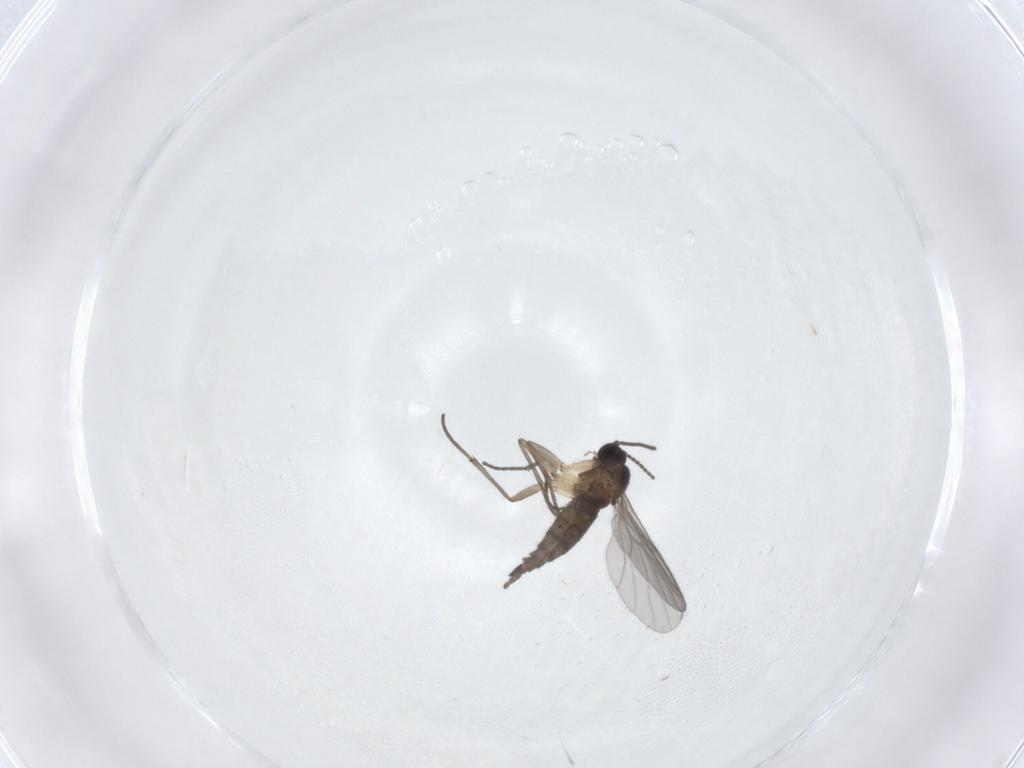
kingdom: Animalia
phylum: Arthropoda
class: Insecta
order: Diptera
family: Sciaridae
